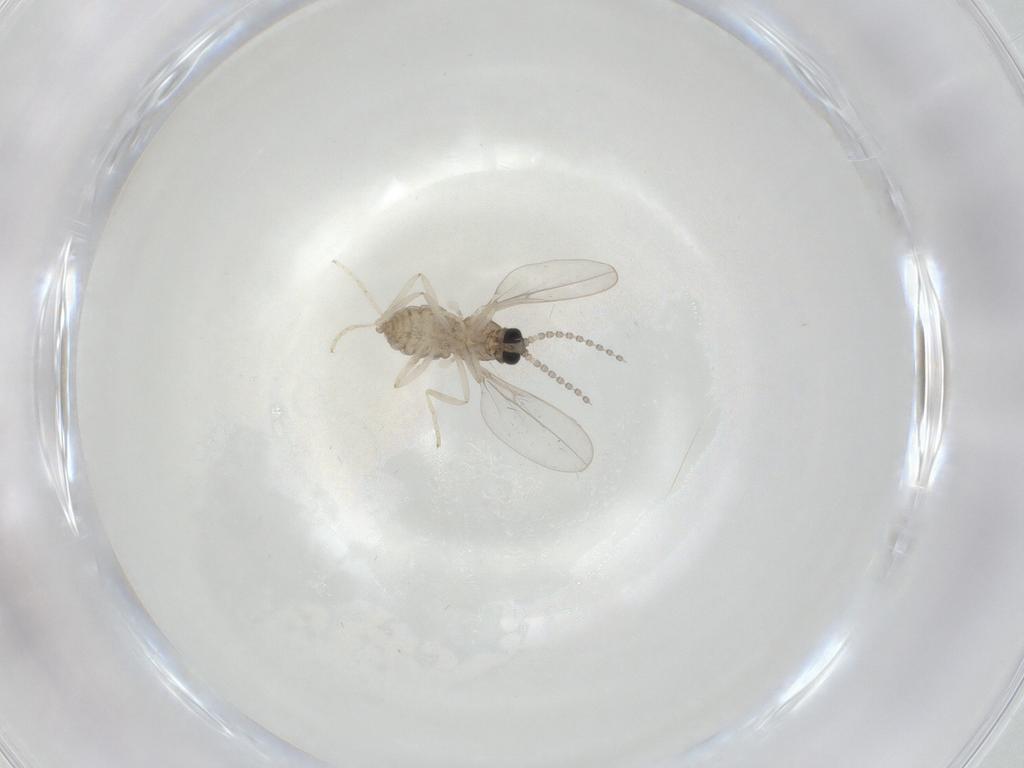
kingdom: Animalia
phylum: Arthropoda
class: Insecta
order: Diptera
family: Cecidomyiidae
